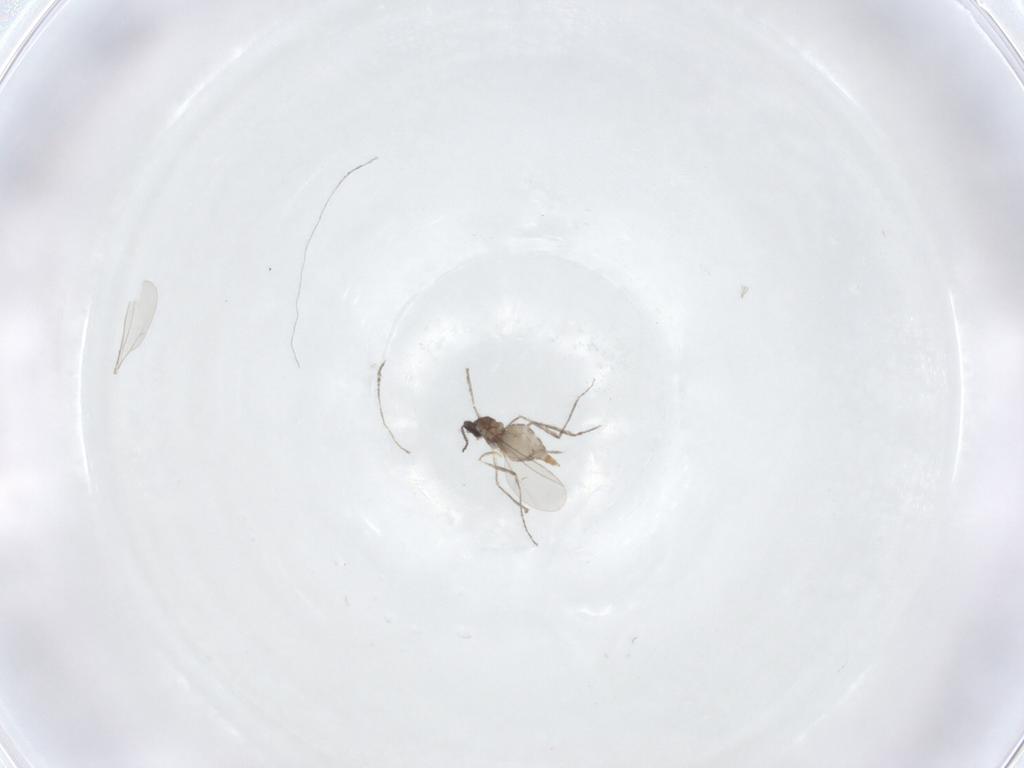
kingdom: Animalia
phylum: Arthropoda
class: Insecta
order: Diptera
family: Cecidomyiidae
